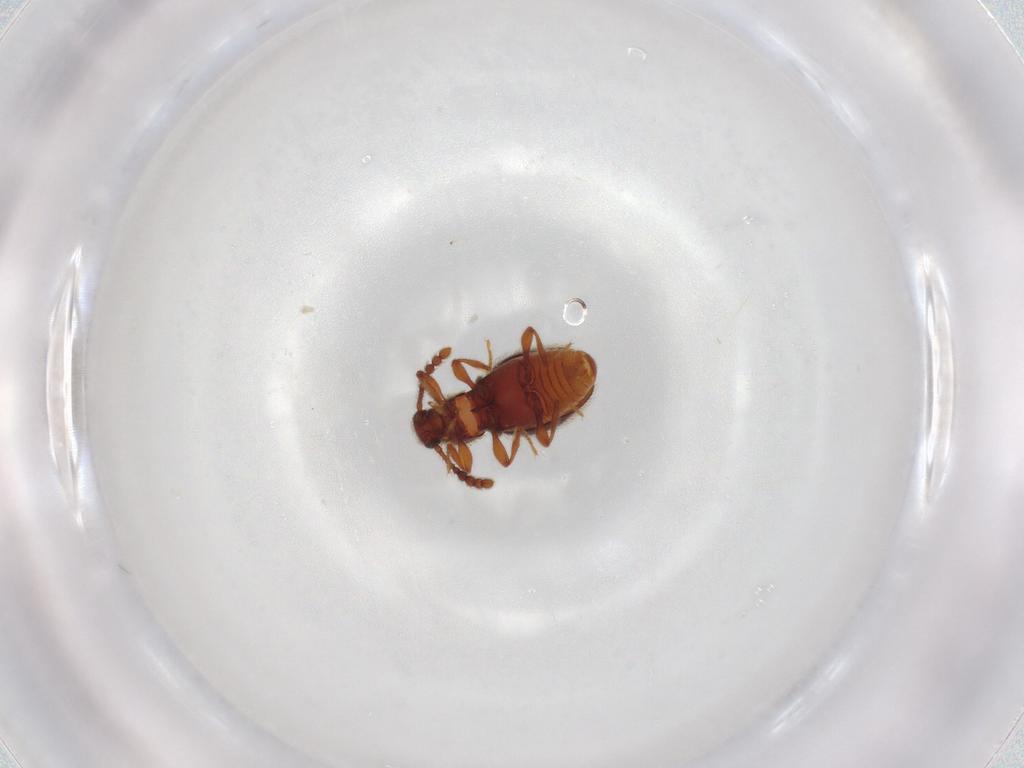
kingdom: Animalia
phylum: Arthropoda
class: Insecta
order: Coleoptera
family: Staphylinidae
